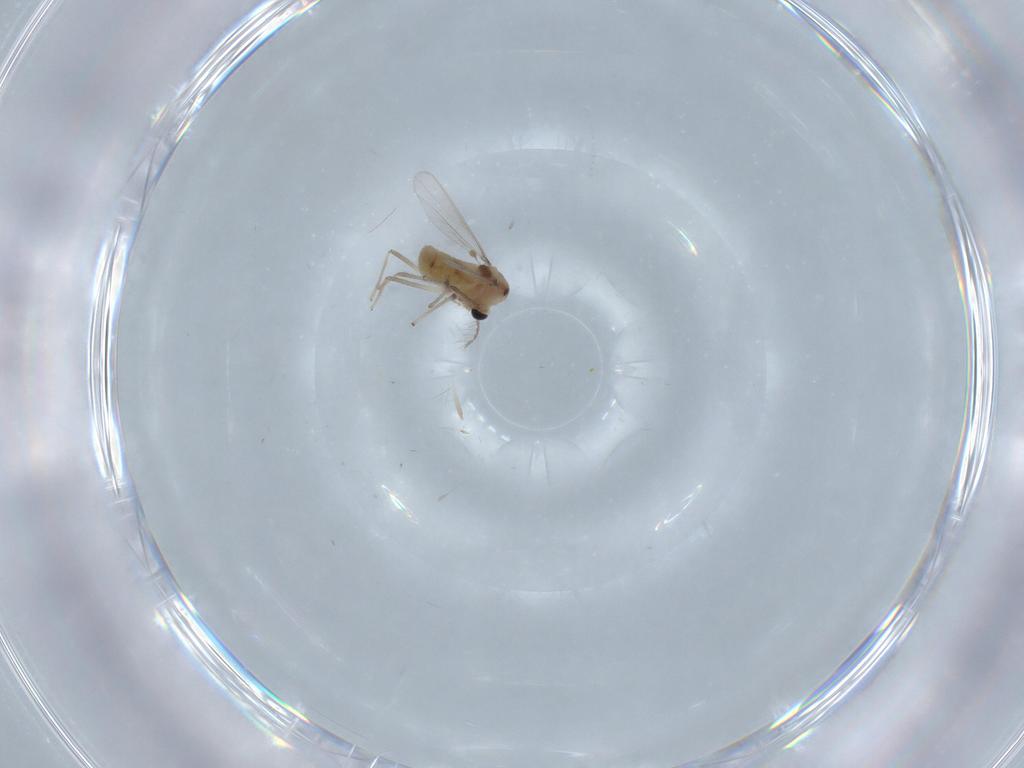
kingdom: Animalia
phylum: Arthropoda
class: Insecta
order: Diptera
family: Chironomidae
